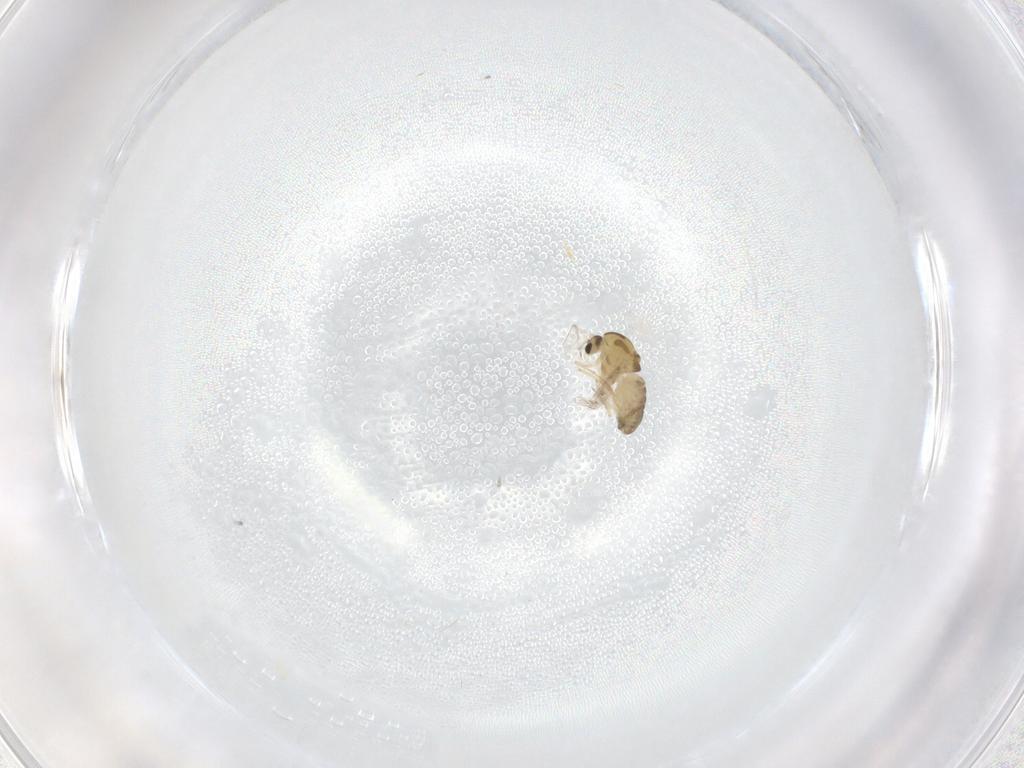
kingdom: Animalia
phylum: Arthropoda
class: Insecta
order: Diptera
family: Chironomidae
